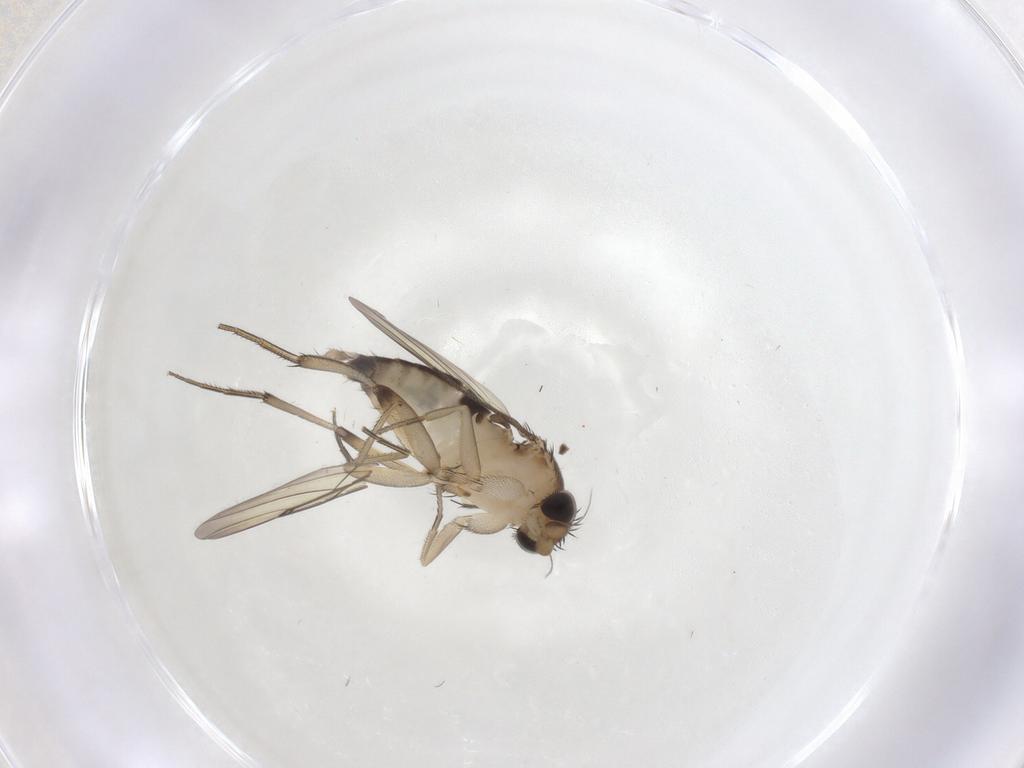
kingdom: Animalia
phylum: Arthropoda
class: Insecta
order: Diptera
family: Phoridae
